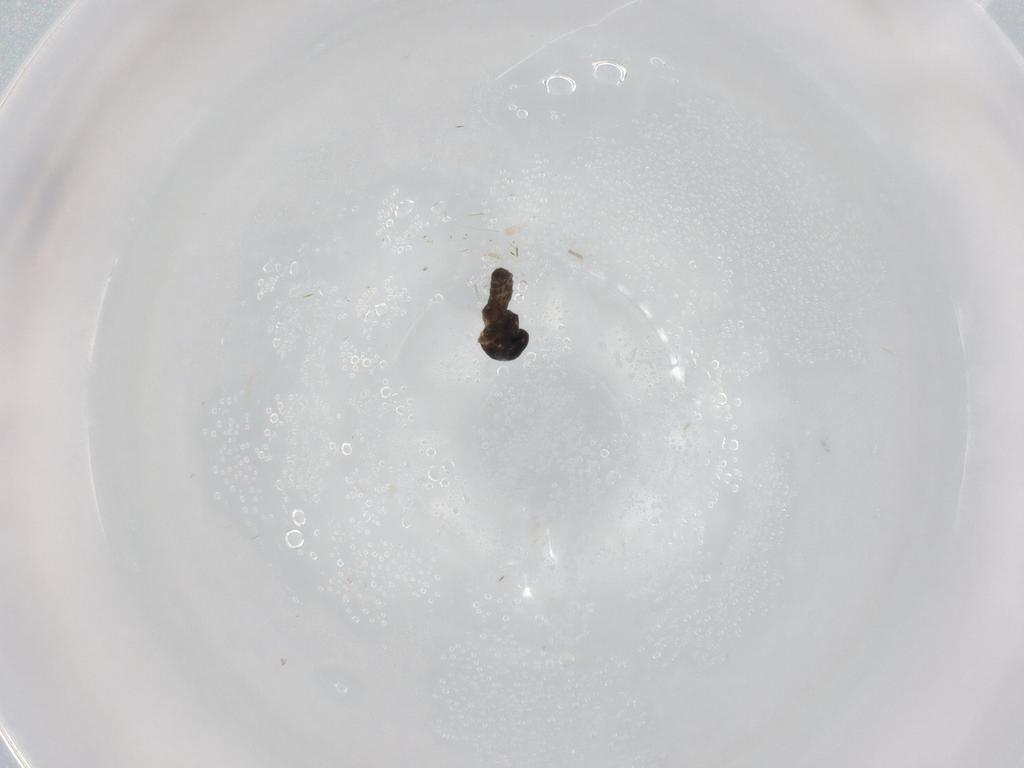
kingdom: Animalia
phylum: Arthropoda
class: Insecta
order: Diptera
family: Ceratopogonidae
